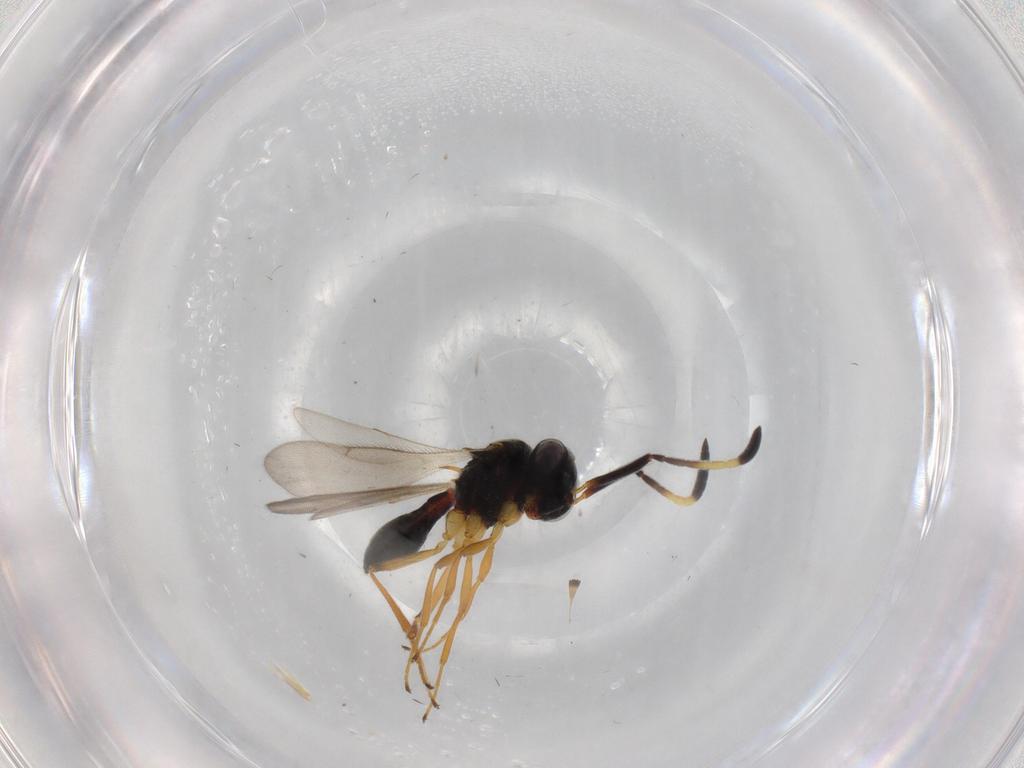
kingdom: Animalia
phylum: Arthropoda
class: Insecta
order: Hymenoptera
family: Scelionidae
